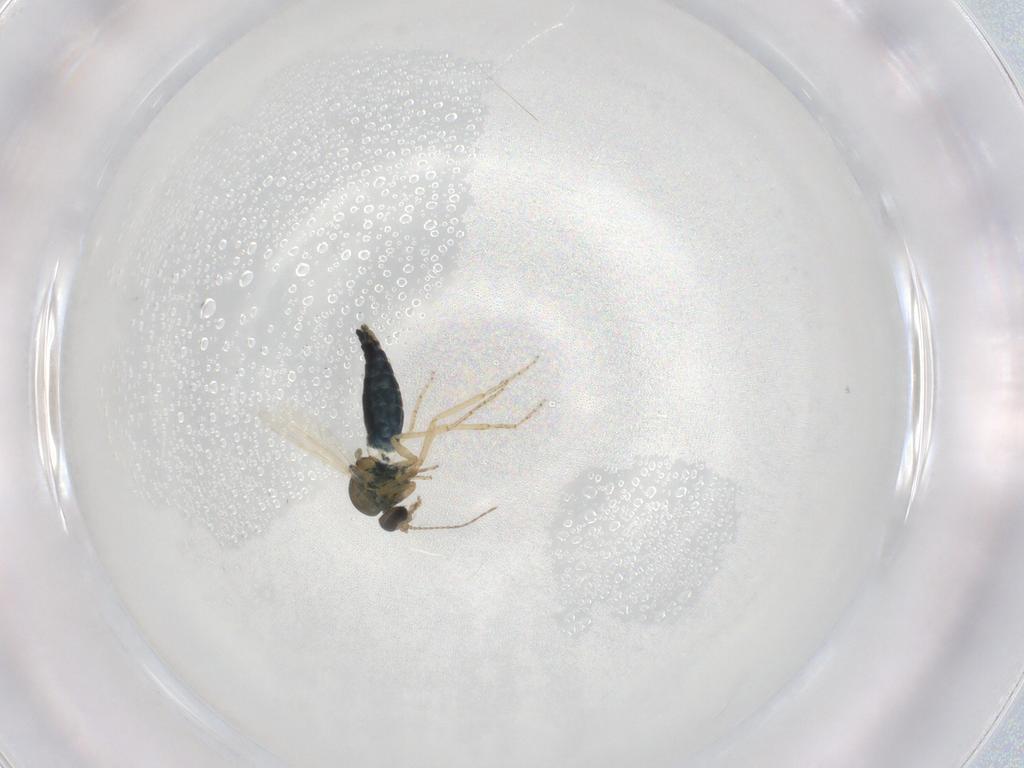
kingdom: Animalia
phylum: Arthropoda
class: Insecta
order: Diptera
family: Ceratopogonidae
